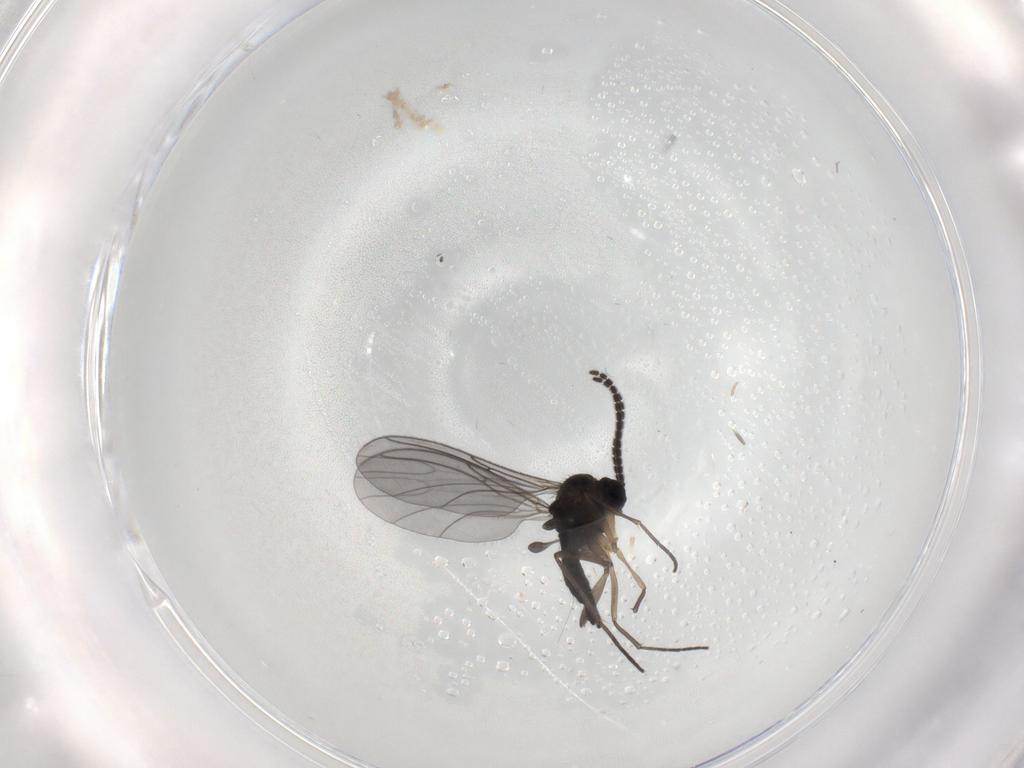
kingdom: Animalia
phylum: Arthropoda
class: Insecta
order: Diptera
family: Sciaridae
